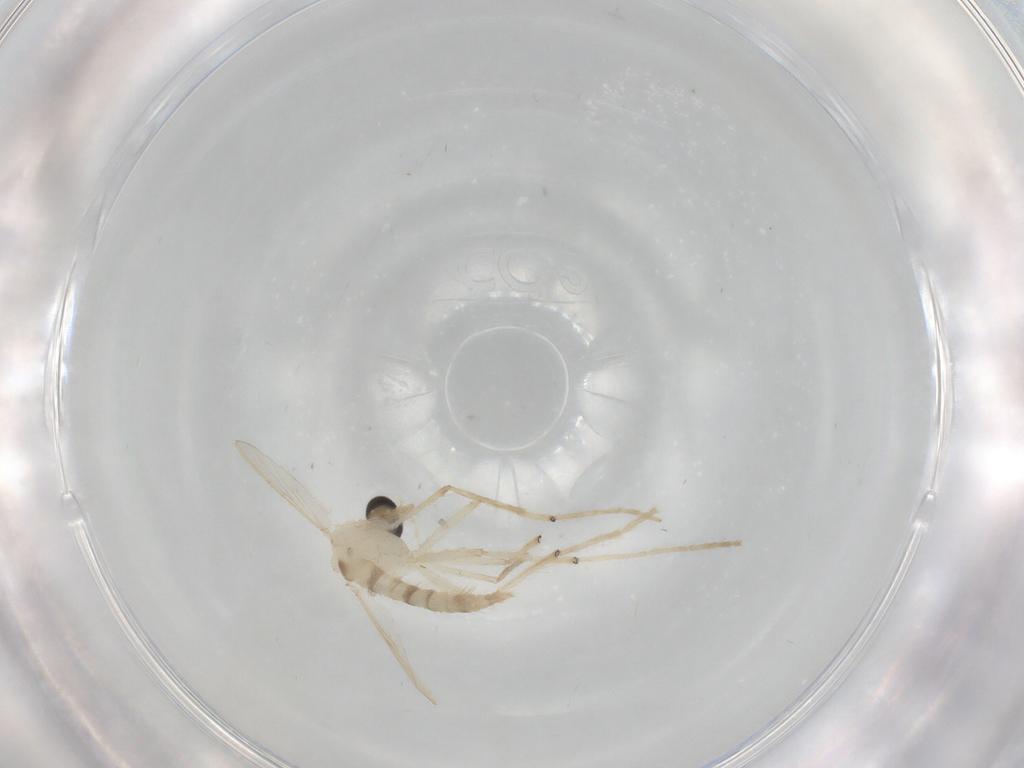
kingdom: Animalia
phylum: Arthropoda
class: Insecta
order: Diptera
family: Chironomidae
